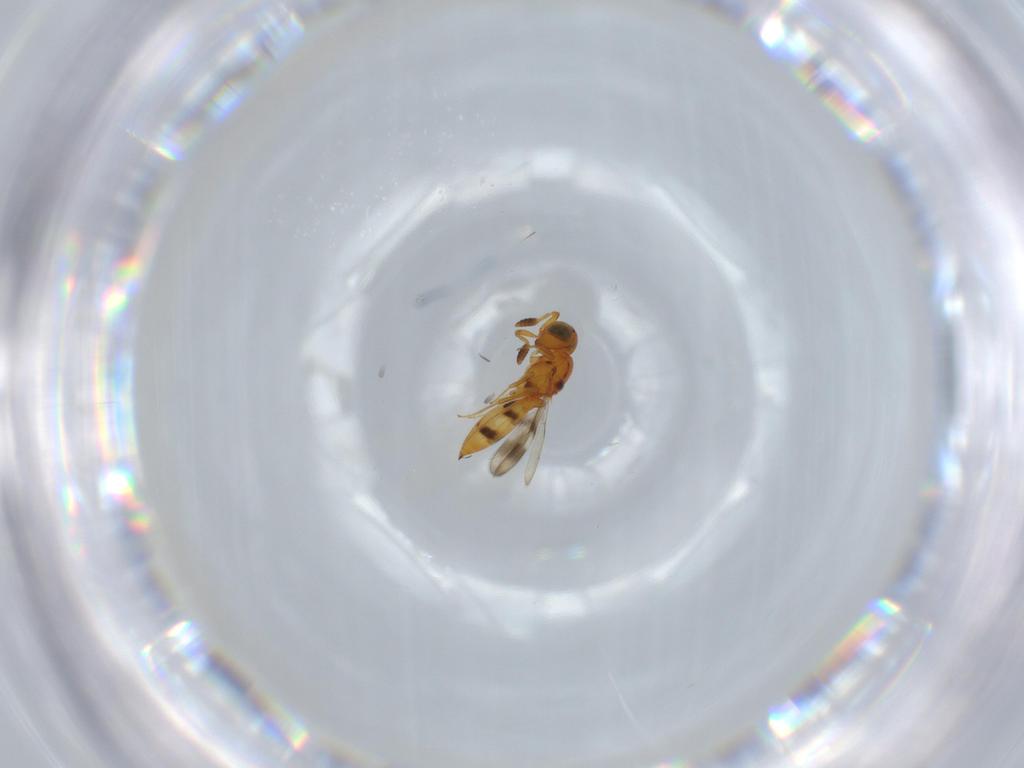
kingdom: Animalia
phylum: Arthropoda
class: Insecta
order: Hymenoptera
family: Scelionidae
